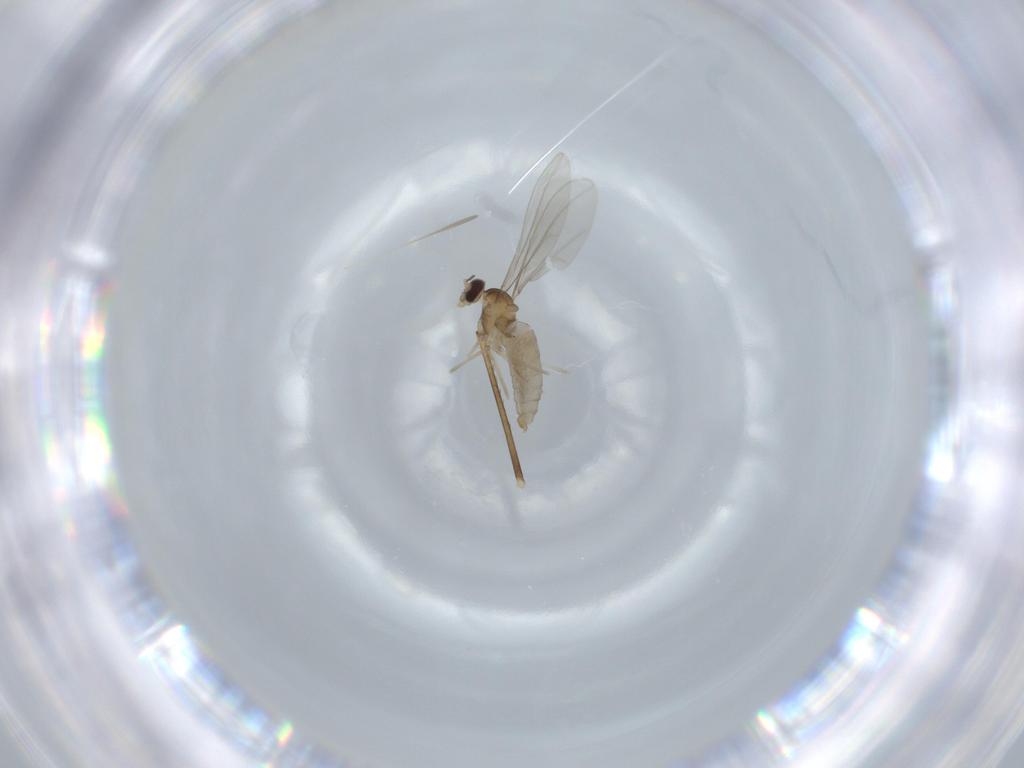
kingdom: Animalia
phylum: Arthropoda
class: Insecta
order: Diptera
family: Cecidomyiidae
